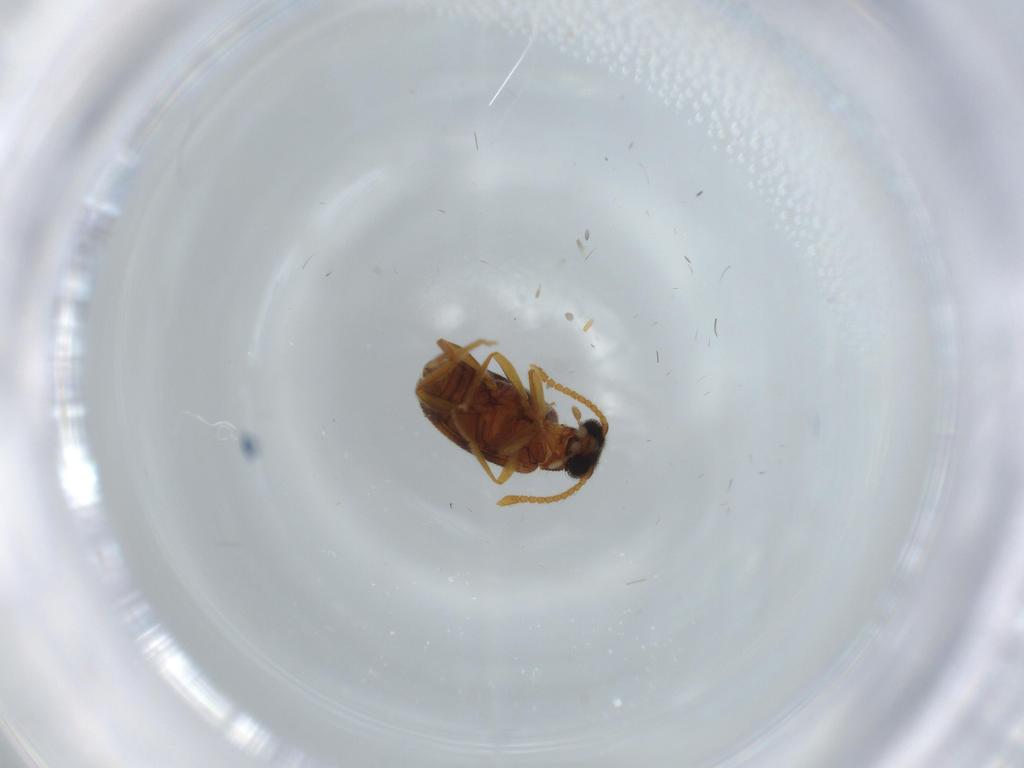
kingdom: Animalia
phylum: Arthropoda
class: Insecta
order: Coleoptera
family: Aderidae
